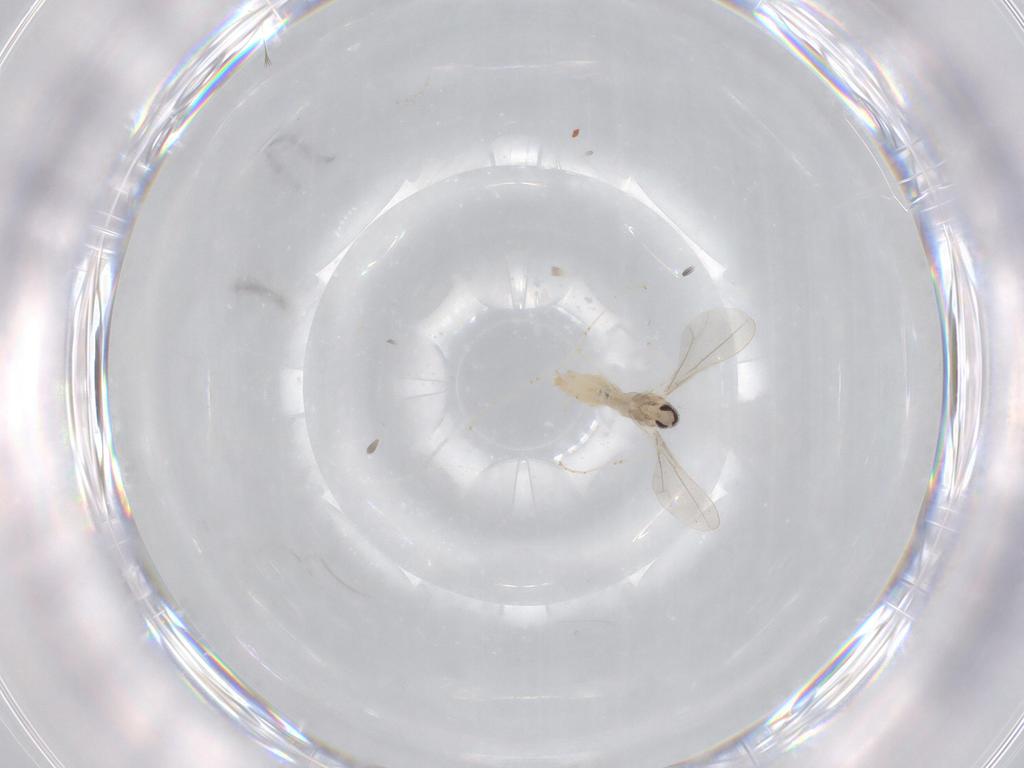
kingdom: Animalia
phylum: Arthropoda
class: Insecta
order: Diptera
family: Cecidomyiidae
